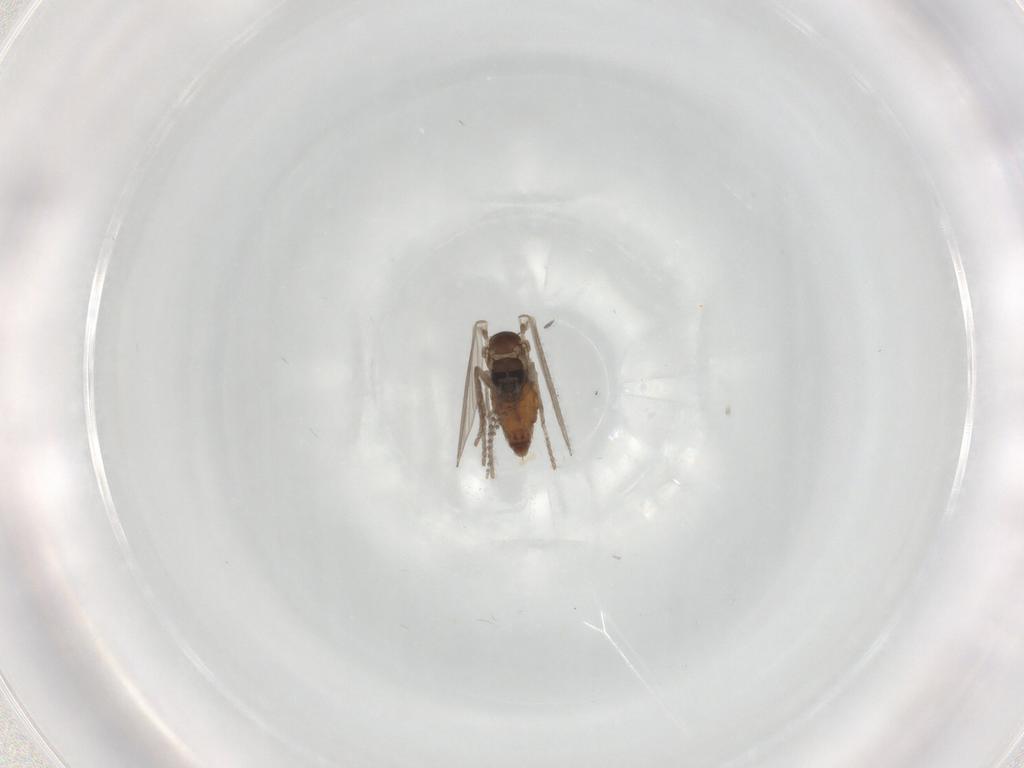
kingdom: Animalia
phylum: Arthropoda
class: Insecta
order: Diptera
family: Psychodidae
